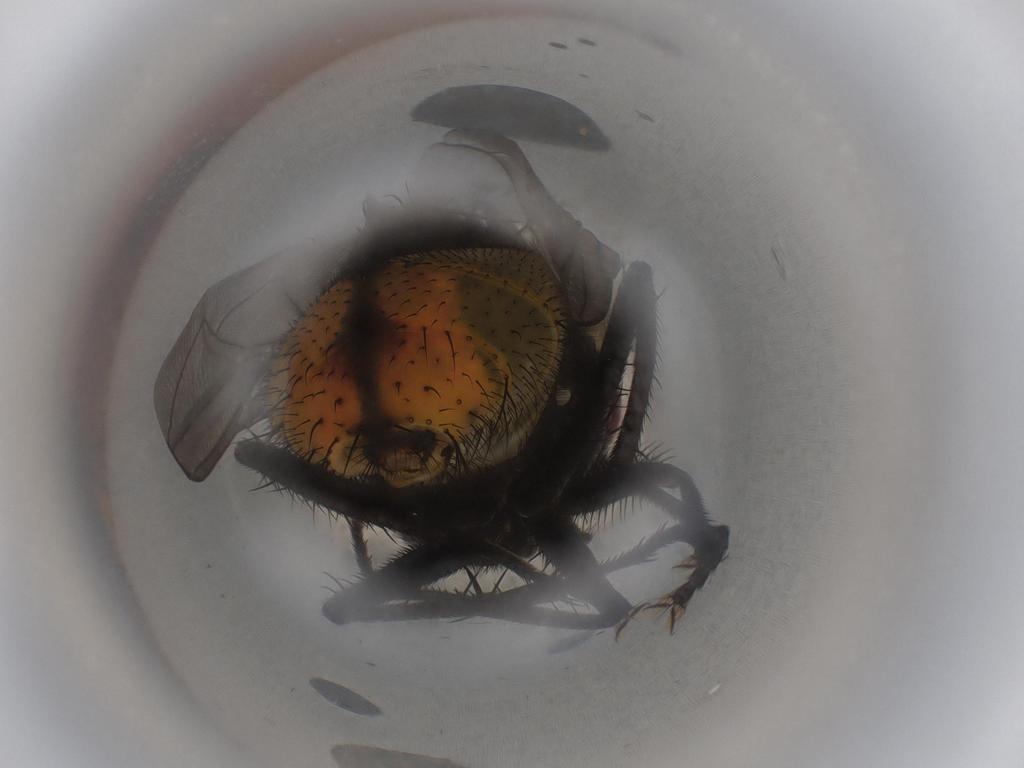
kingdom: Animalia
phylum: Arthropoda
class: Insecta
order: Diptera
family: Muscidae
